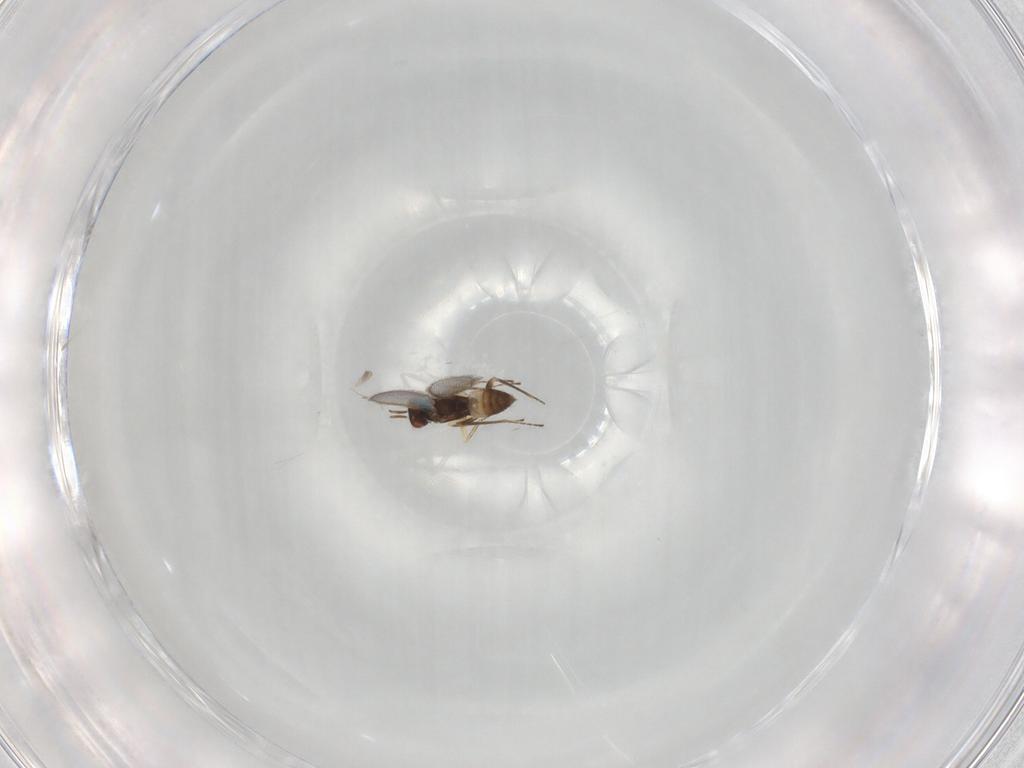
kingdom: Animalia
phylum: Arthropoda
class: Insecta
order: Hymenoptera
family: Mymaridae
